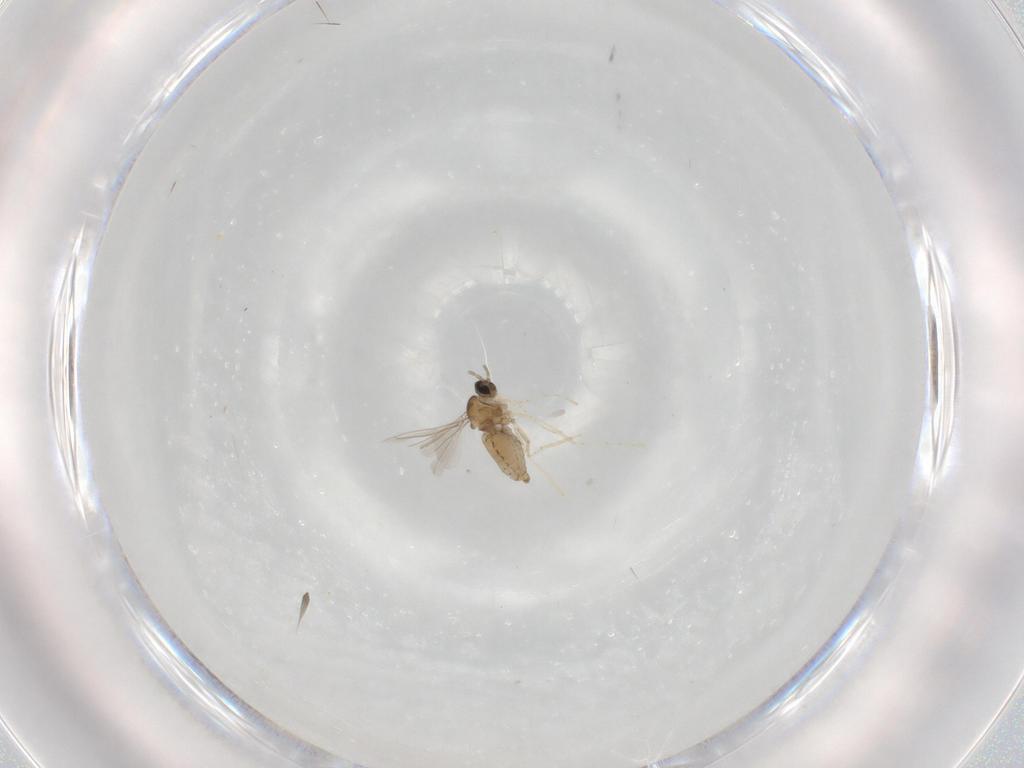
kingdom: Animalia
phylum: Arthropoda
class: Insecta
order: Diptera
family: Cecidomyiidae
